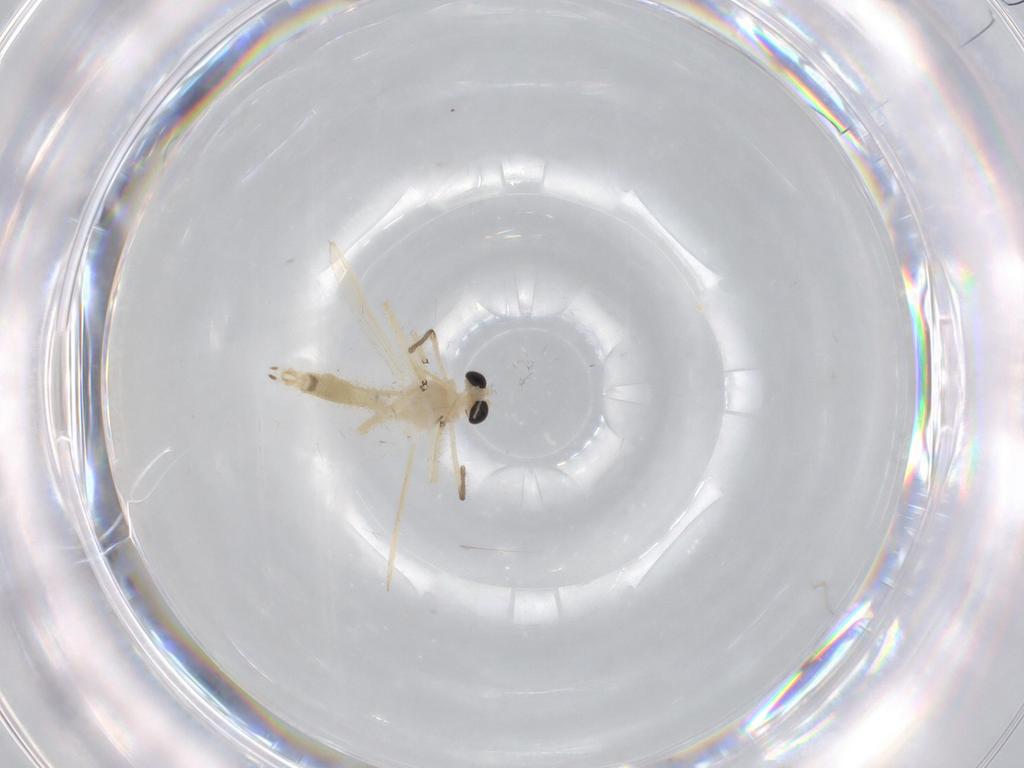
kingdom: Animalia
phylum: Arthropoda
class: Insecta
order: Diptera
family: Chironomidae
